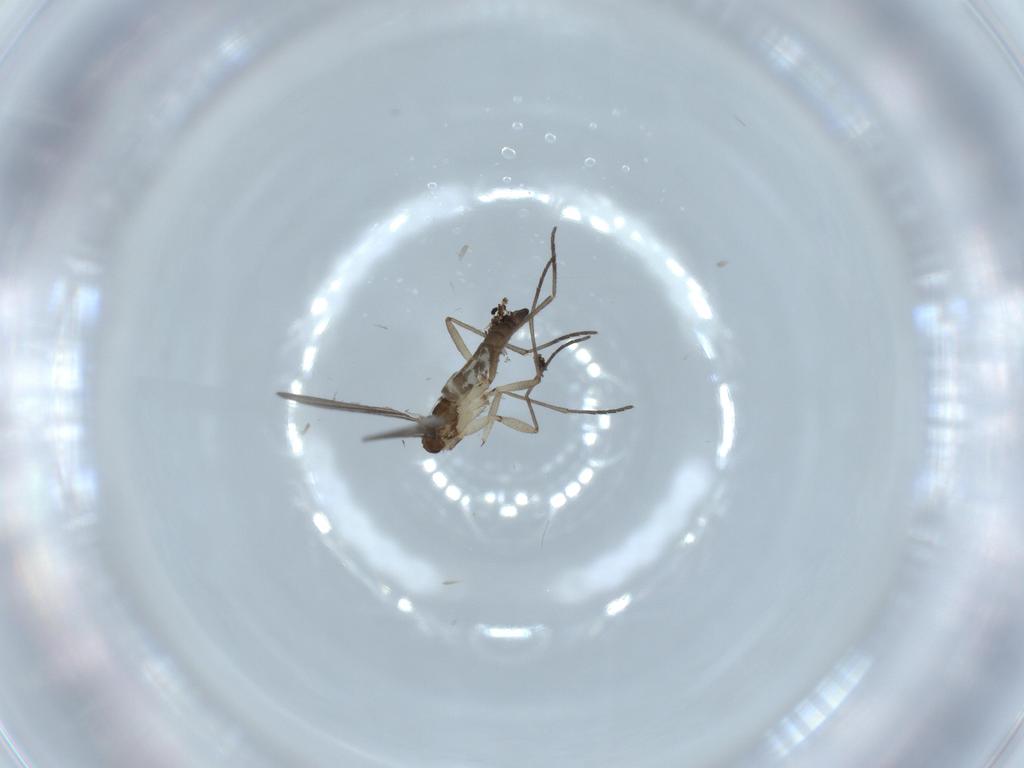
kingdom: Animalia
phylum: Arthropoda
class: Insecta
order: Diptera
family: Sciaridae
